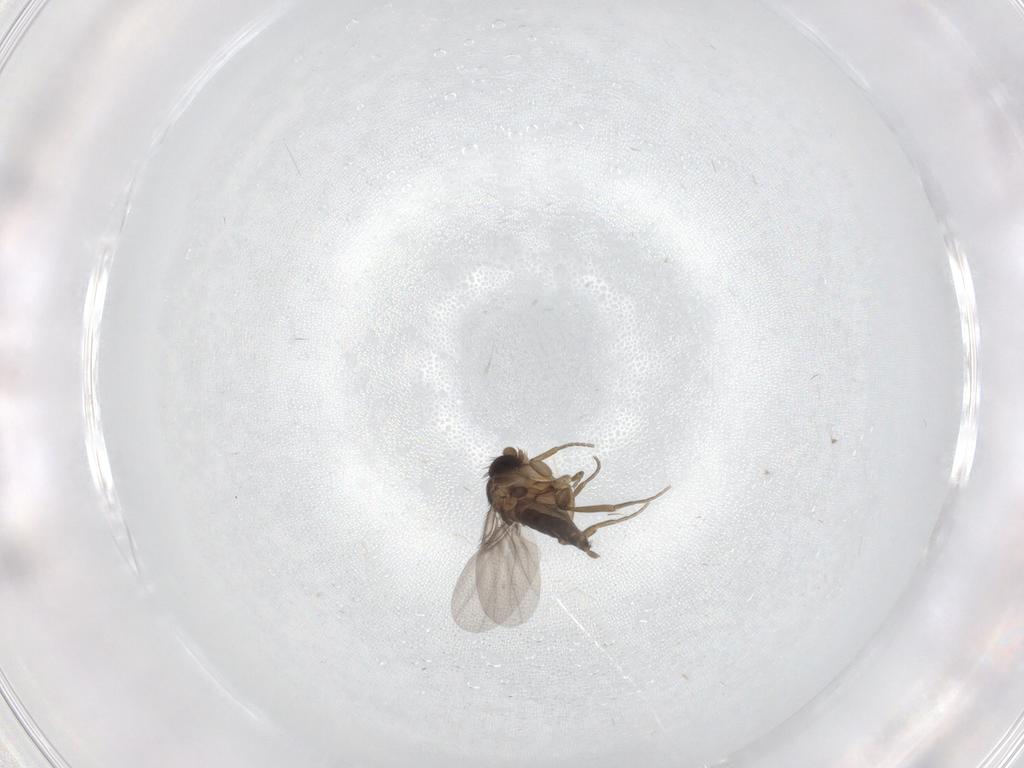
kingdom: Animalia
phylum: Arthropoda
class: Insecta
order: Diptera
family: Phoridae
